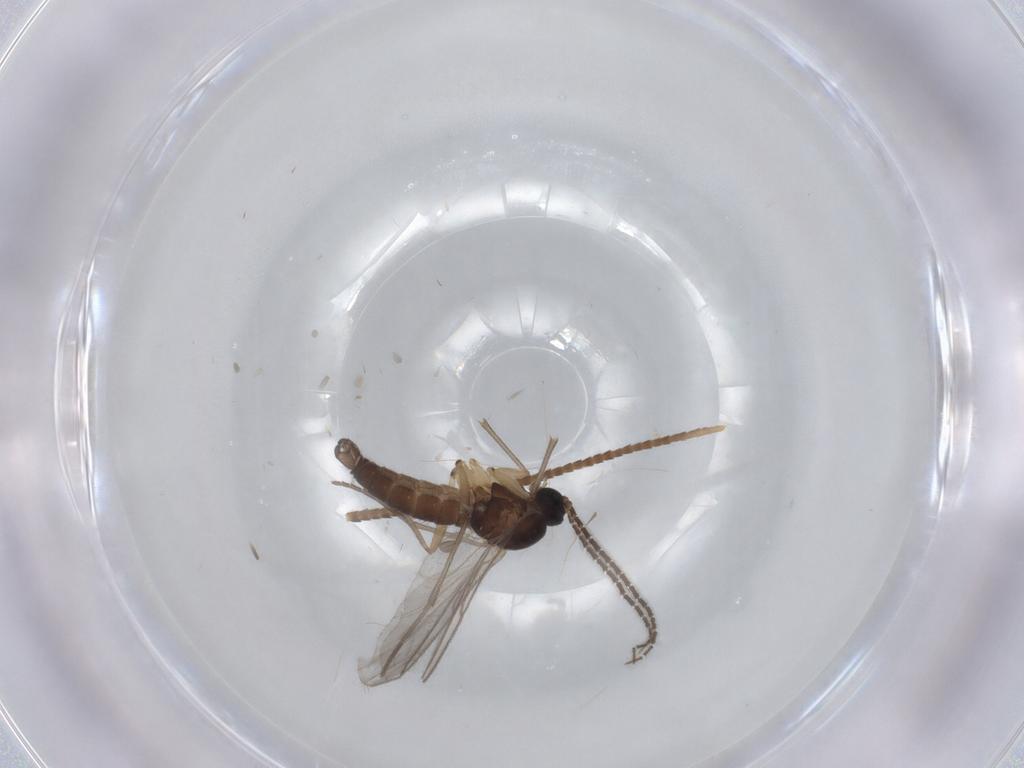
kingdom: Animalia
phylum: Arthropoda
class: Insecta
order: Diptera
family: Sciaridae
